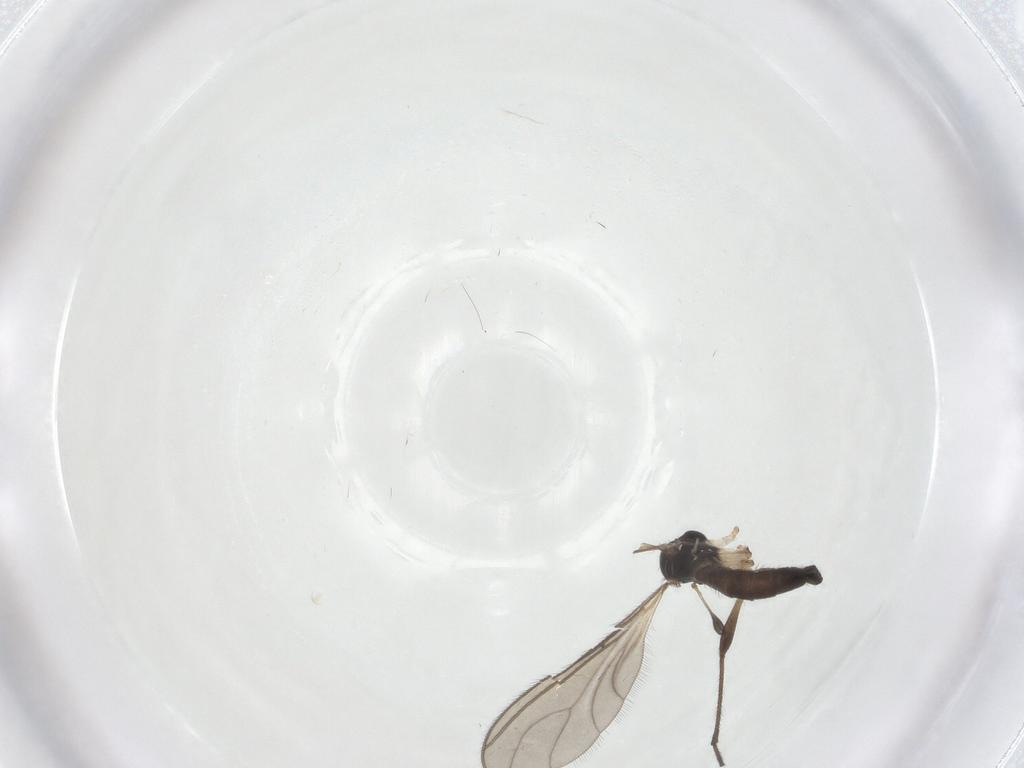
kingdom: Animalia
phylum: Arthropoda
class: Insecta
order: Diptera
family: Sciaridae
